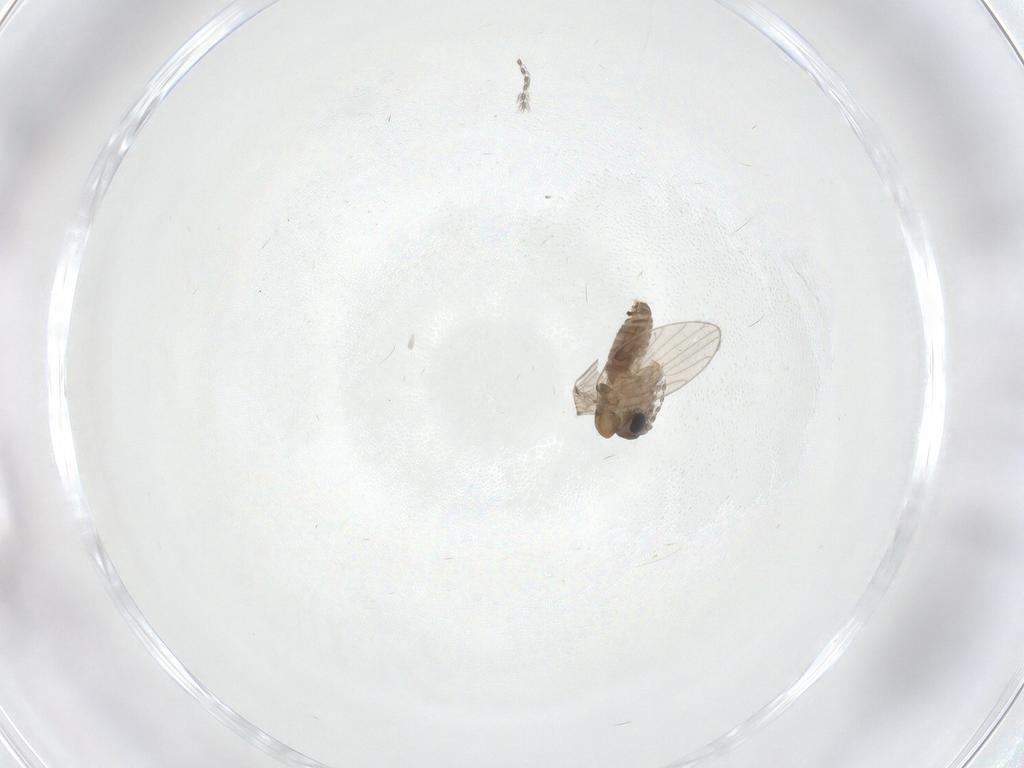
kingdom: Animalia
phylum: Arthropoda
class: Insecta
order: Diptera
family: Psychodidae
